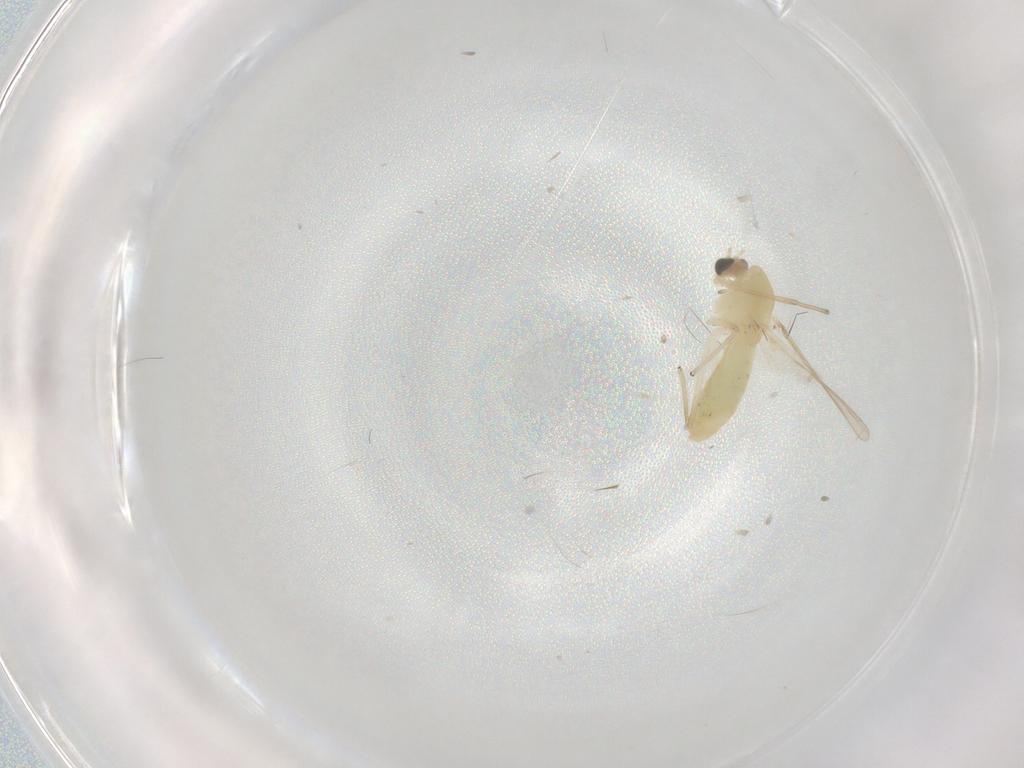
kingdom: Animalia
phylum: Arthropoda
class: Insecta
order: Diptera
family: Chironomidae
